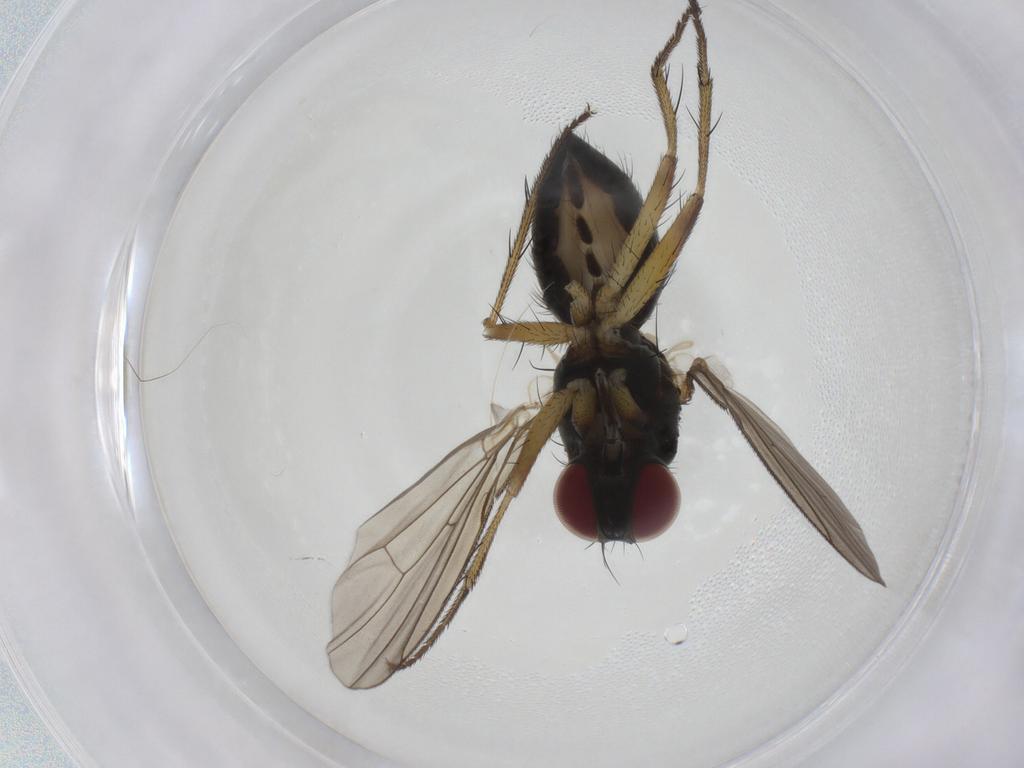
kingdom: Animalia
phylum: Arthropoda
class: Insecta
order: Diptera
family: Muscidae
